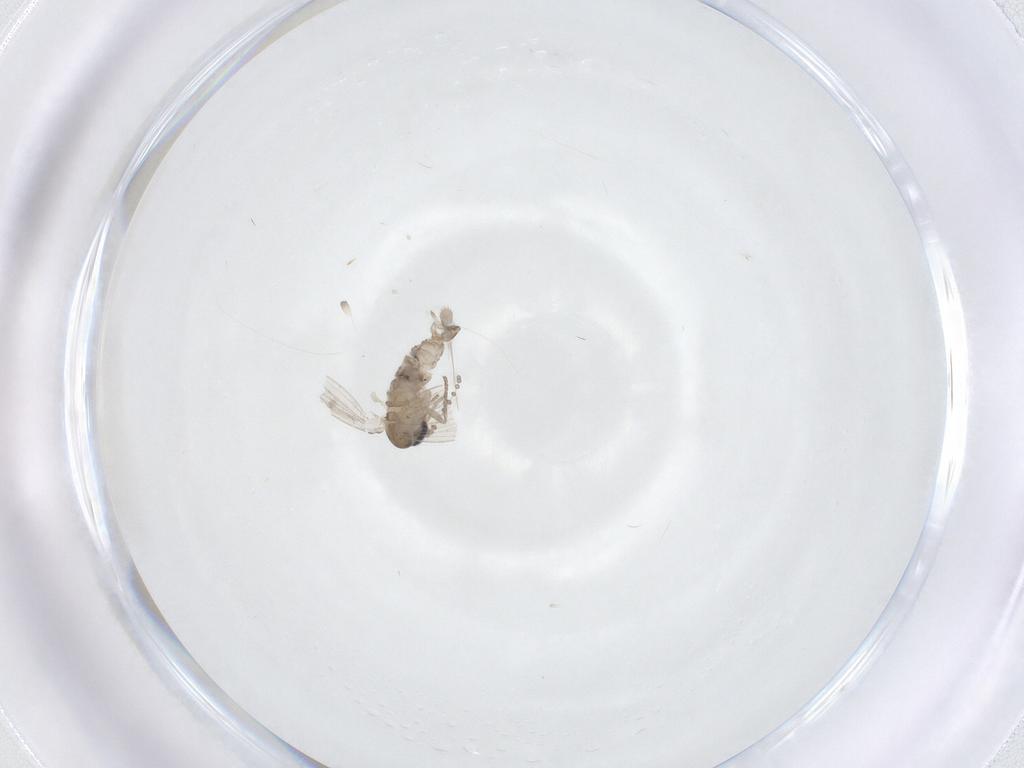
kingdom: Animalia
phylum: Arthropoda
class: Insecta
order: Diptera
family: Psychodidae
